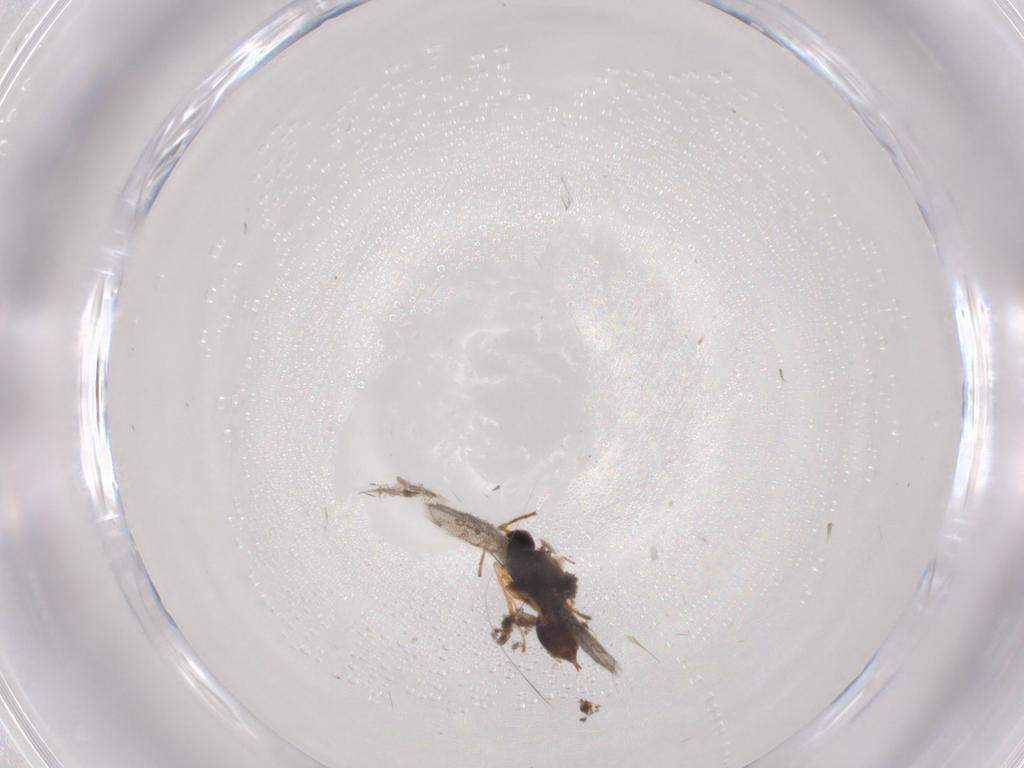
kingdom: Animalia
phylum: Arthropoda
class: Insecta
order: Hymenoptera
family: Diapriidae
